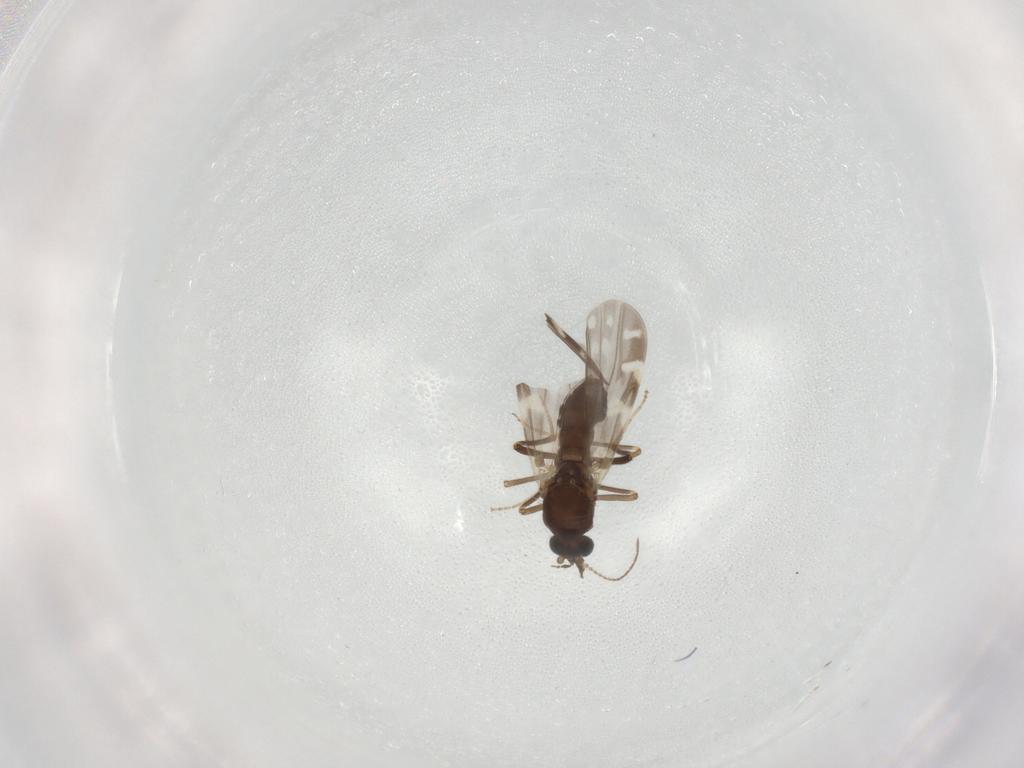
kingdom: Animalia
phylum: Arthropoda
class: Insecta
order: Diptera
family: Ceratopogonidae
